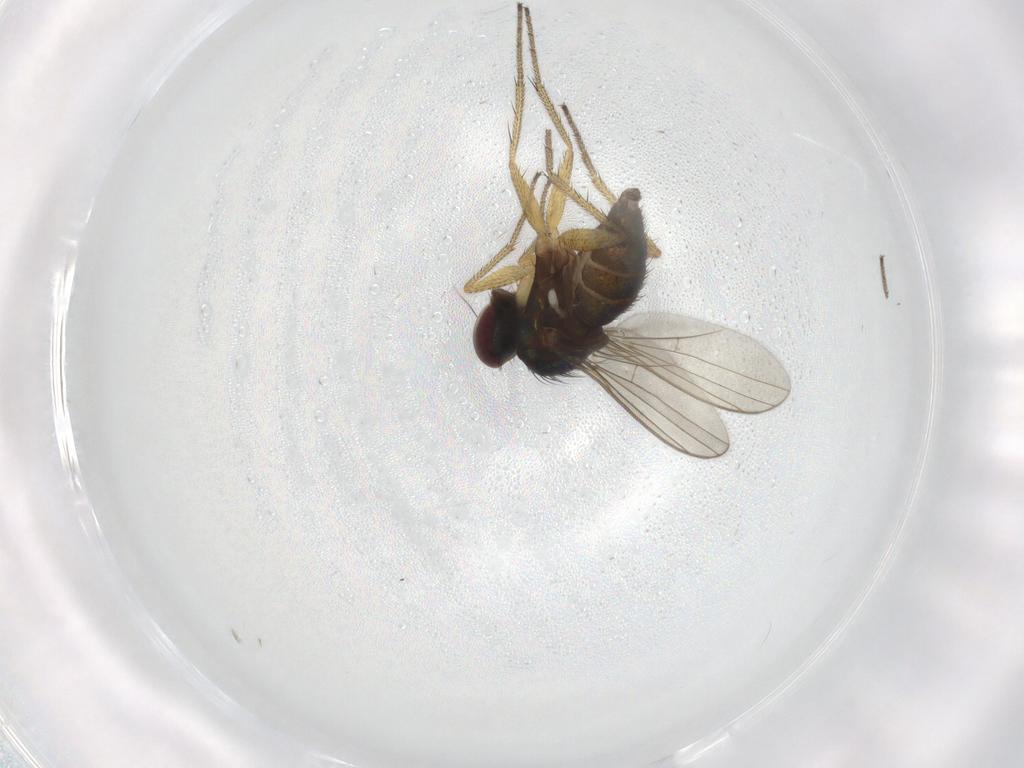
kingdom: Animalia
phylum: Arthropoda
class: Insecta
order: Diptera
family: Dolichopodidae
